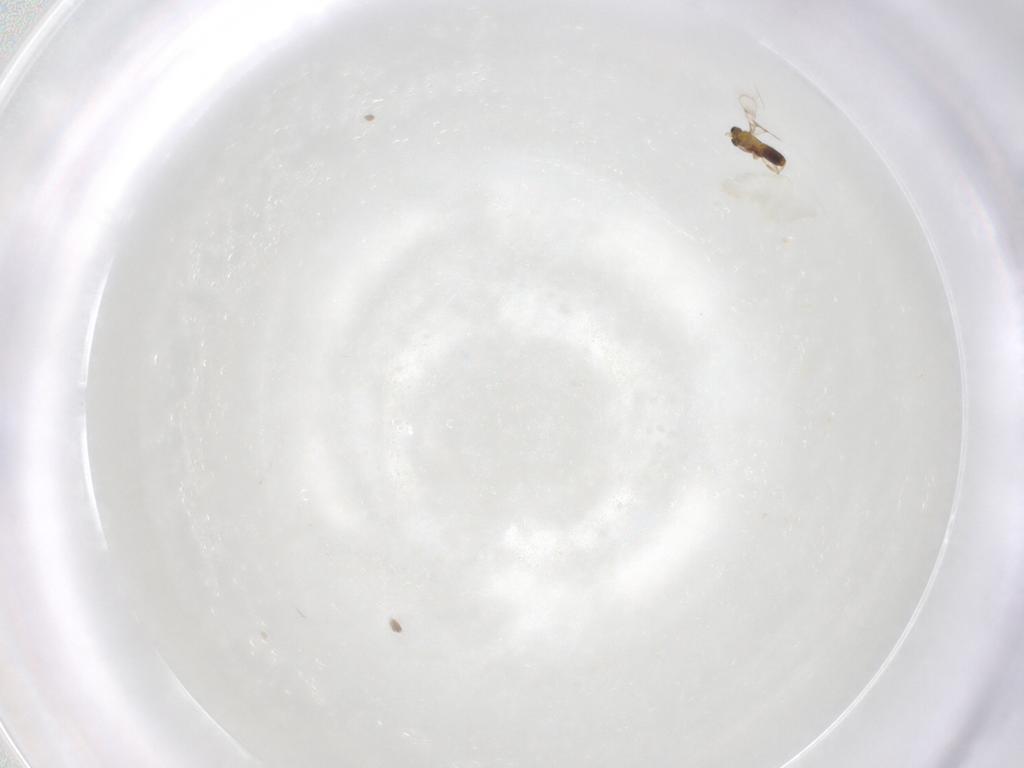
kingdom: Animalia
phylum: Arthropoda
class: Insecta
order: Hymenoptera
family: Trichogrammatidae
